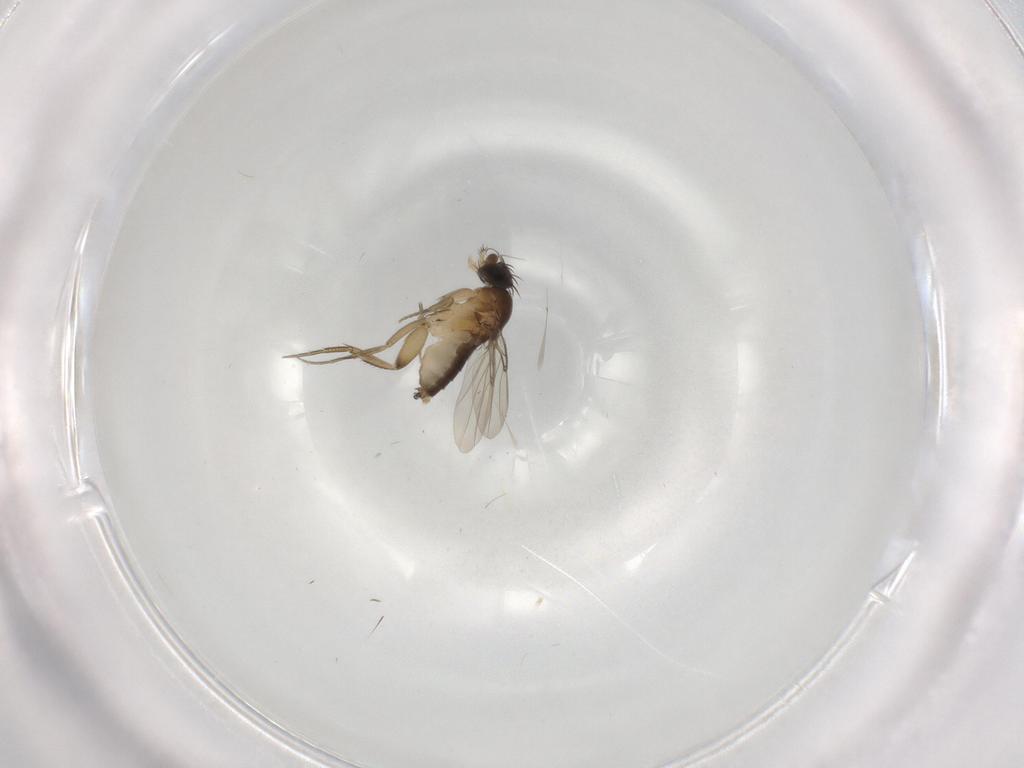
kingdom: Animalia
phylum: Arthropoda
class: Insecta
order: Diptera
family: Phoridae
